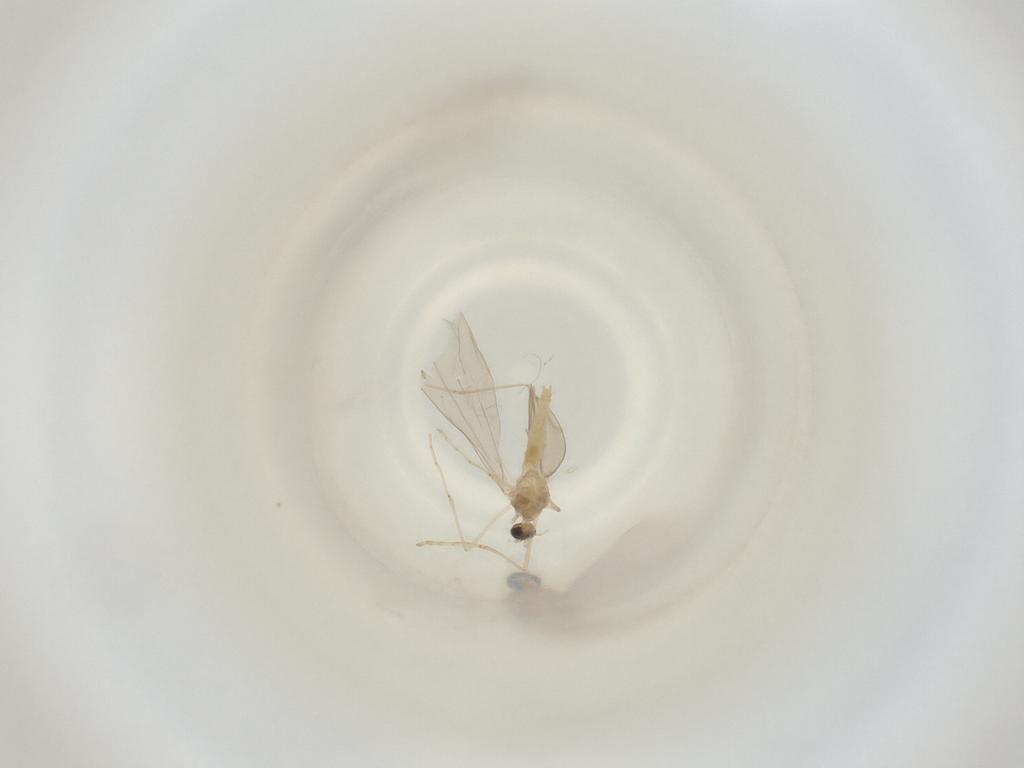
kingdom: Animalia
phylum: Arthropoda
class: Insecta
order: Diptera
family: Cecidomyiidae
